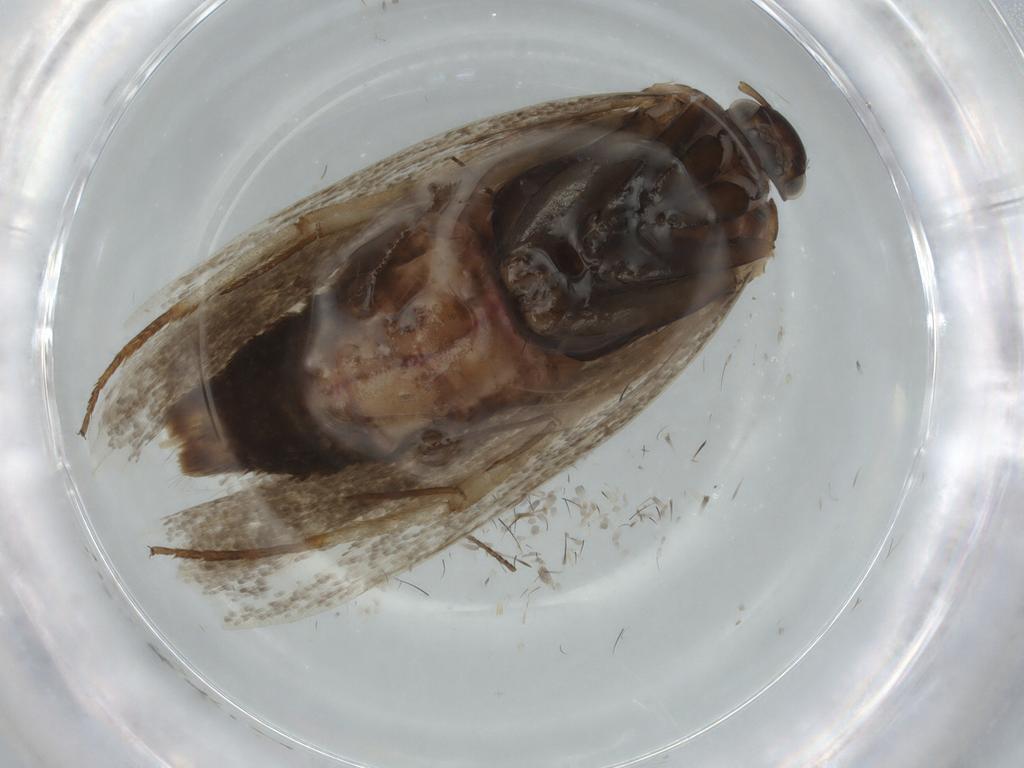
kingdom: Animalia
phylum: Arthropoda
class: Insecta
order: Lepidoptera
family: Gelechiidae
